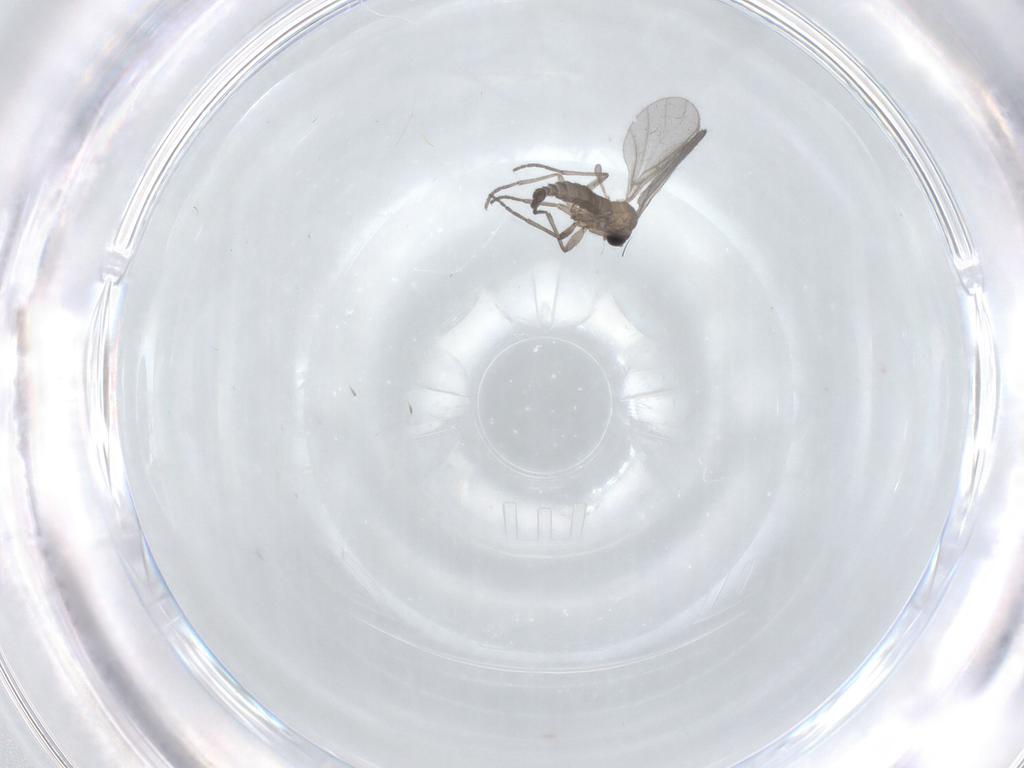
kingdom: Animalia
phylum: Arthropoda
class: Insecta
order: Diptera
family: Sciaridae
